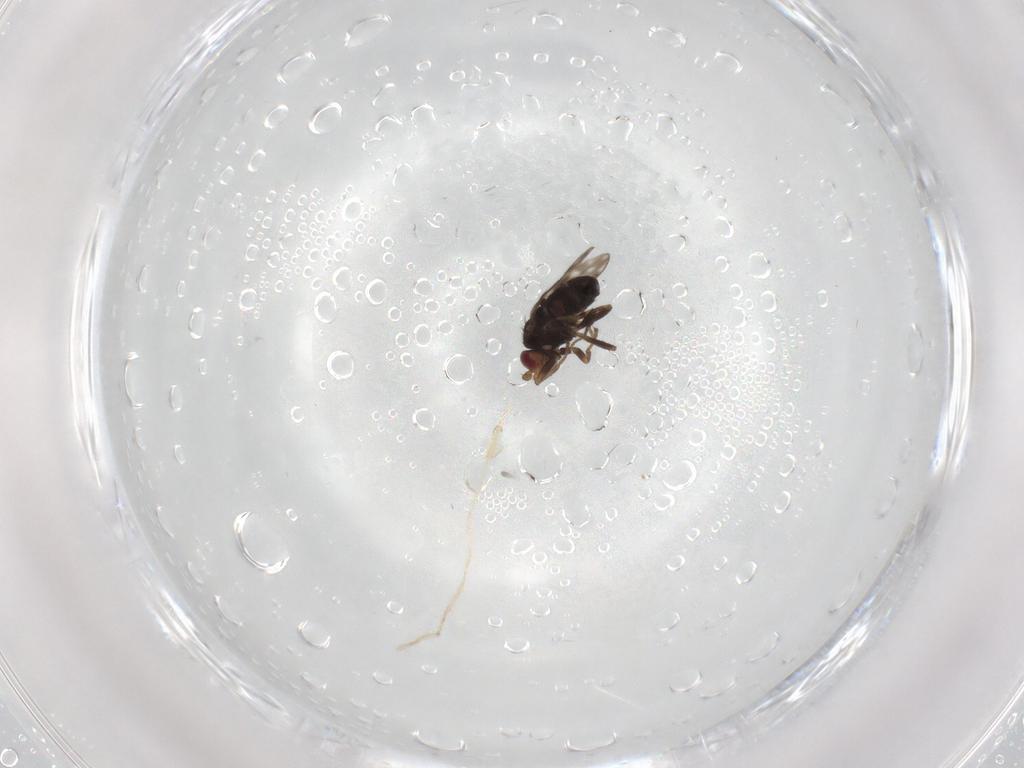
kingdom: Animalia
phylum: Arthropoda
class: Insecta
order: Diptera
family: Sphaeroceridae
